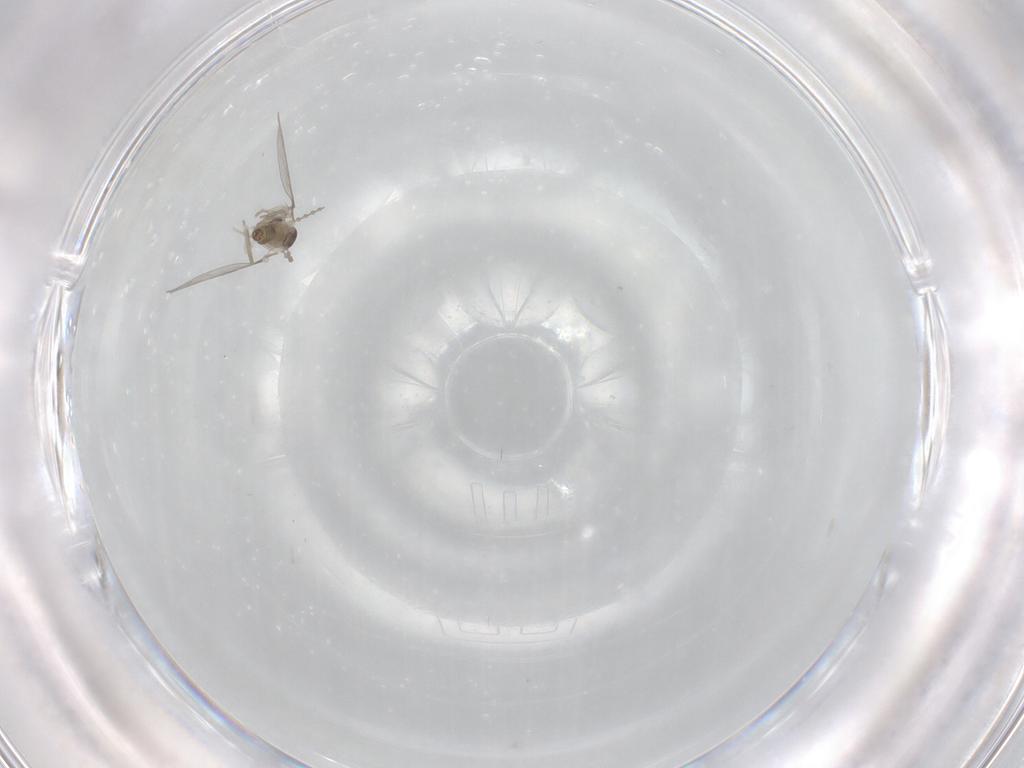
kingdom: Animalia
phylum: Arthropoda
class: Insecta
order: Diptera
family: Cecidomyiidae
